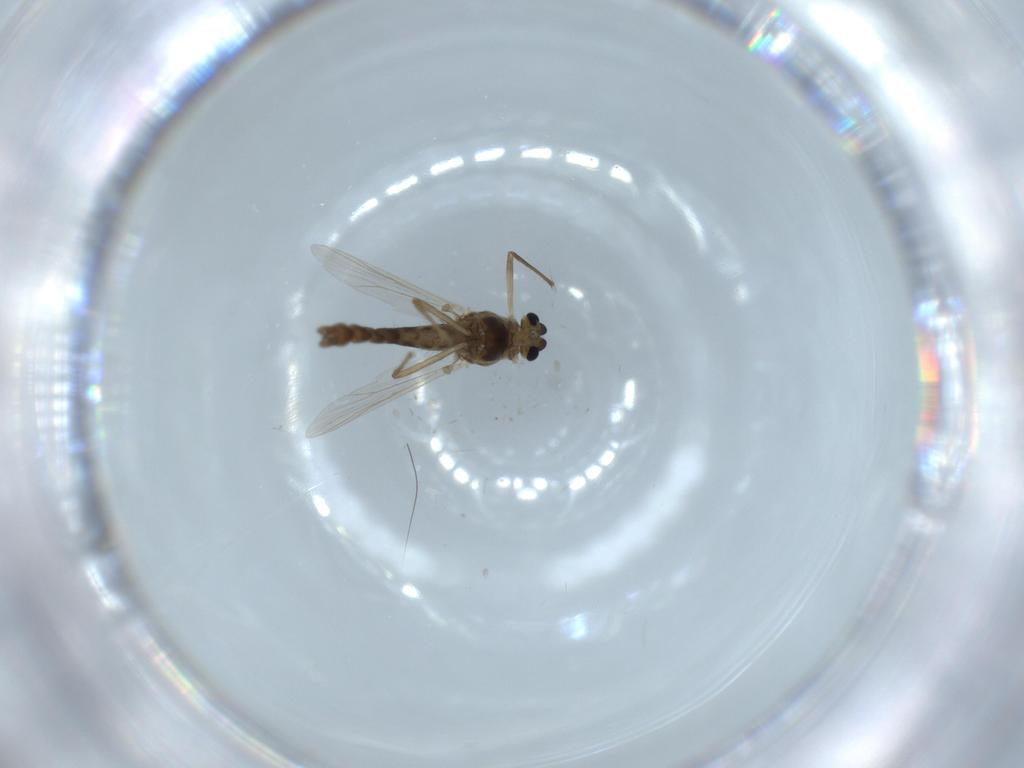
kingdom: Animalia
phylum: Arthropoda
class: Insecta
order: Diptera
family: Chironomidae
